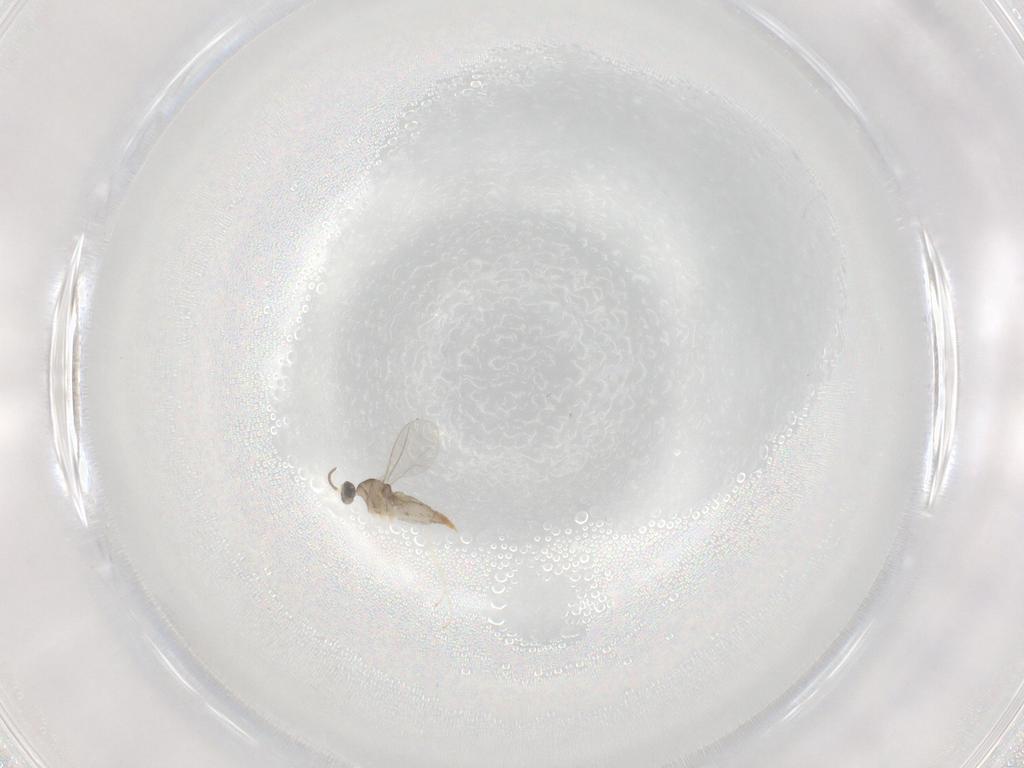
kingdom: Animalia
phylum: Arthropoda
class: Insecta
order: Diptera
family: Cecidomyiidae
